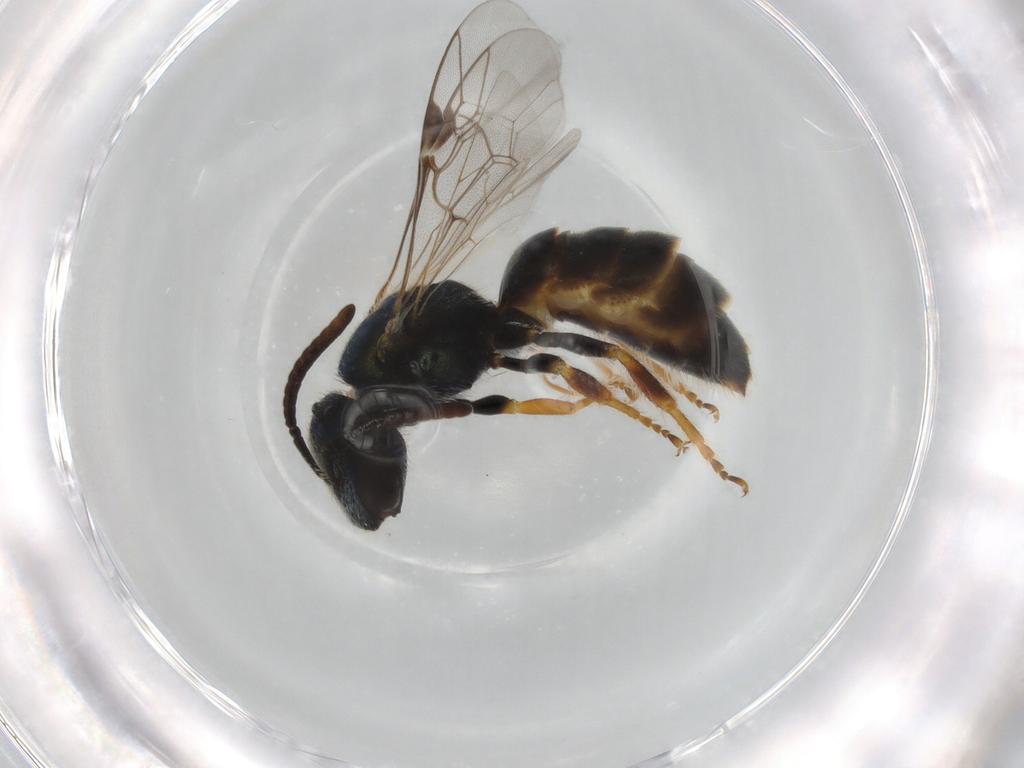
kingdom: Animalia
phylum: Arthropoda
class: Insecta
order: Hymenoptera
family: Halictidae
